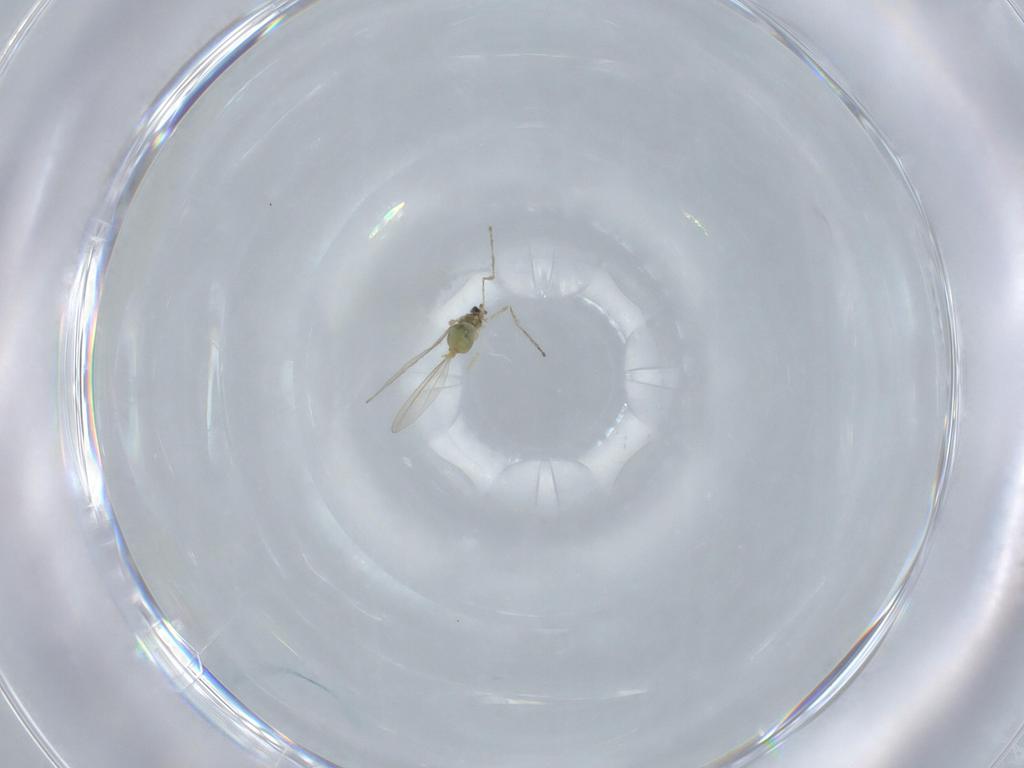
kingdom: Animalia
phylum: Arthropoda
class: Insecta
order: Diptera
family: Cecidomyiidae
